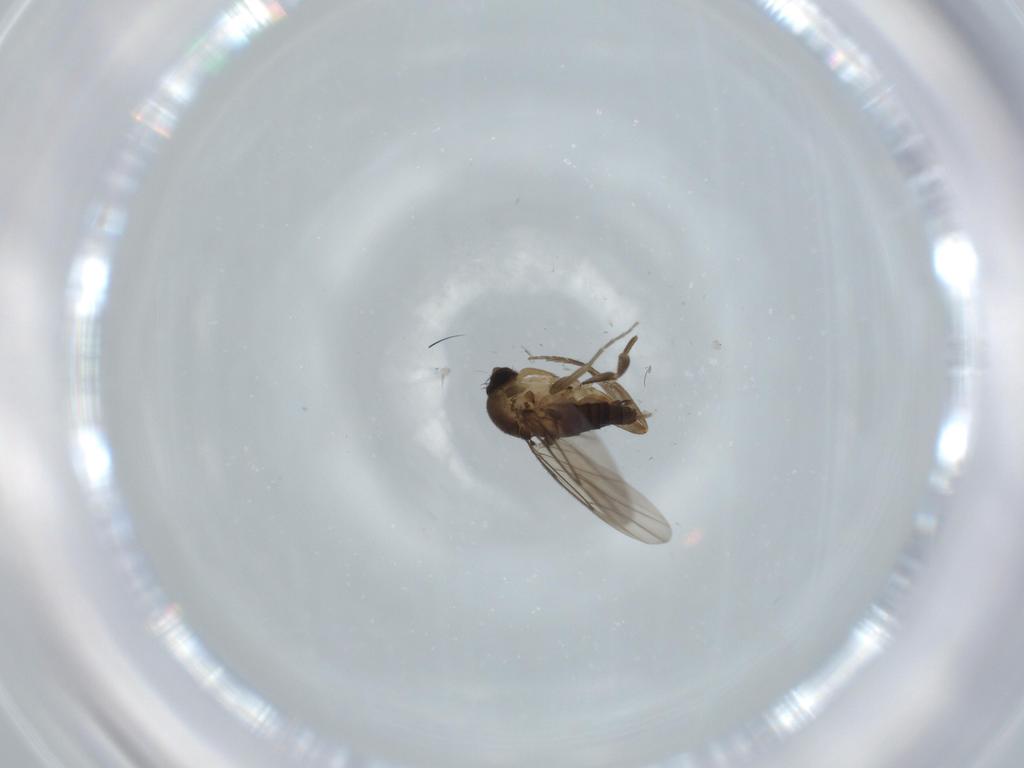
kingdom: Animalia
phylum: Arthropoda
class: Insecta
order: Diptera
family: Phoridae
